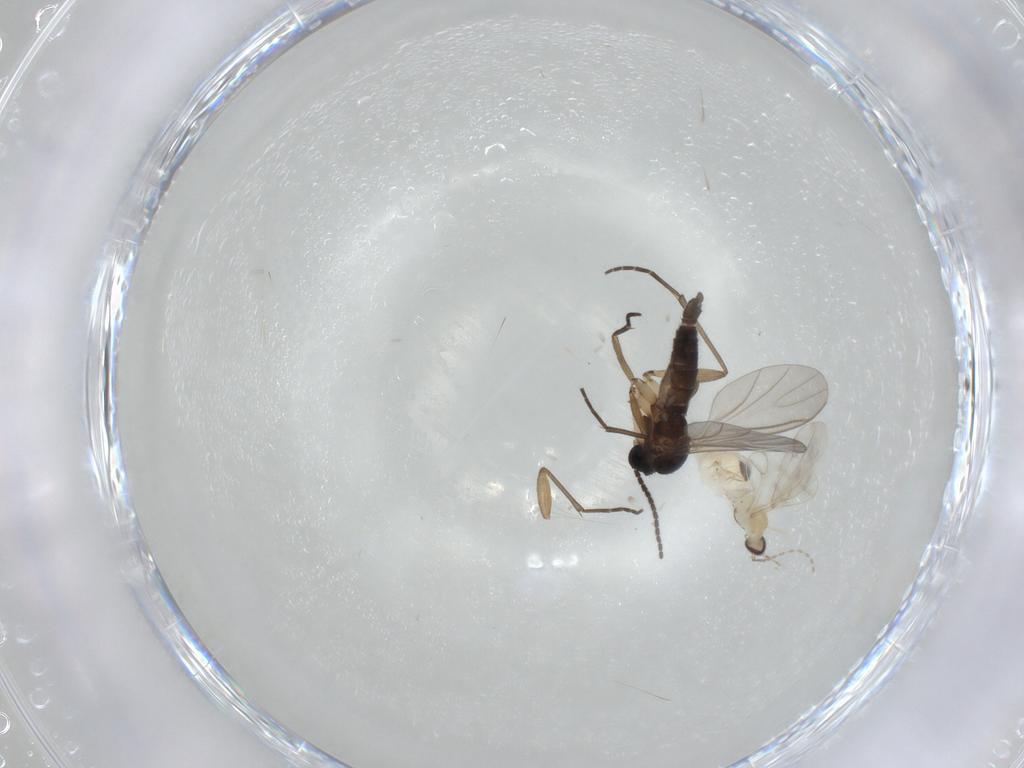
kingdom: Animalia
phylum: Arthropoda
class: Insecta
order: Diptera
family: Cecidomyiidae
